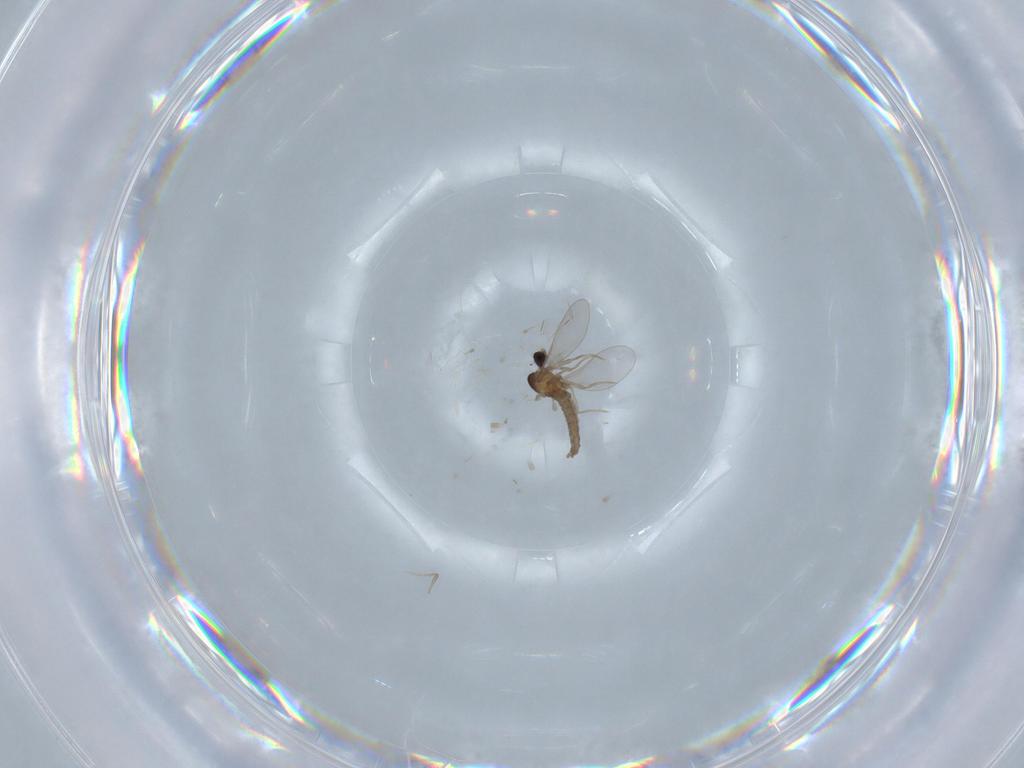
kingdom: Animalia
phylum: Arthropoda
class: Insecta
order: Diptera
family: Cecidomyiidae
